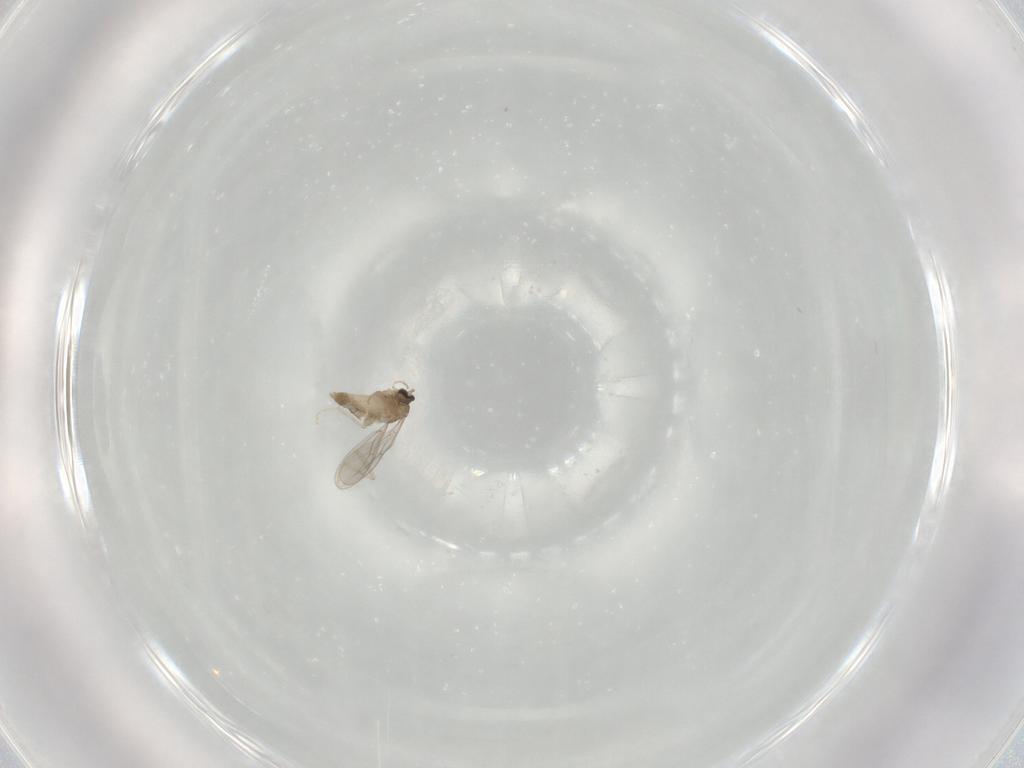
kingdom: Animalia
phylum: Arthropoda
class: Insecta
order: Diptera
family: Cecidomyiidae
